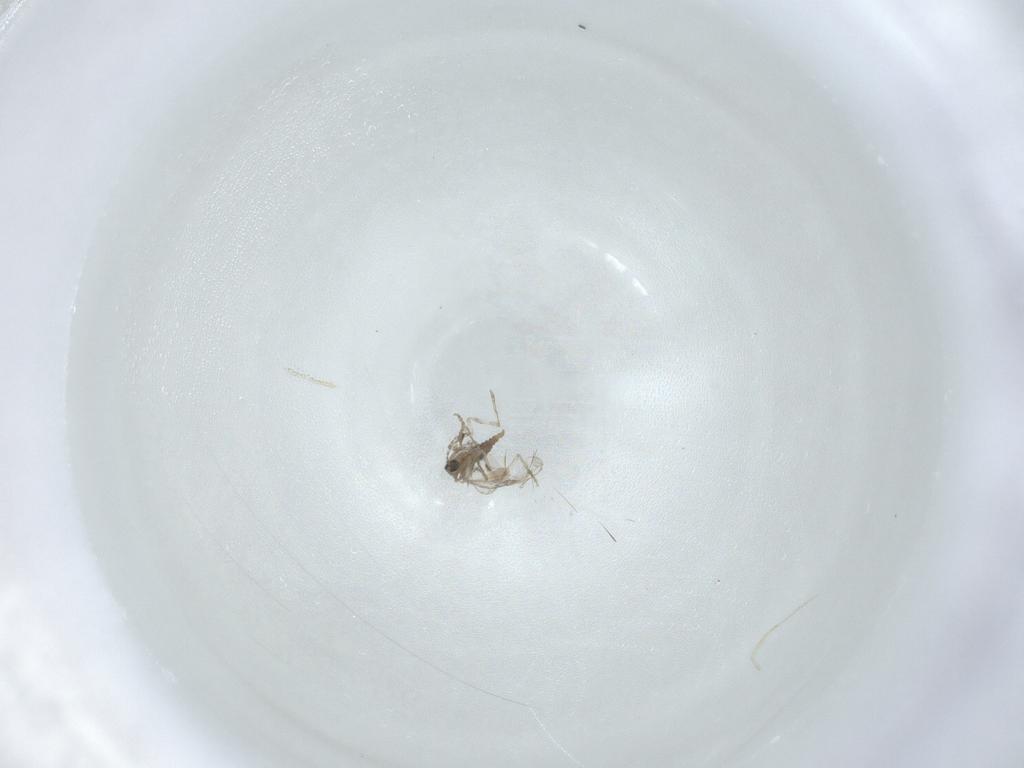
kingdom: Animalia
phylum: Arthropoda
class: Insecta
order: Diptera
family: Cecidomyiidae
